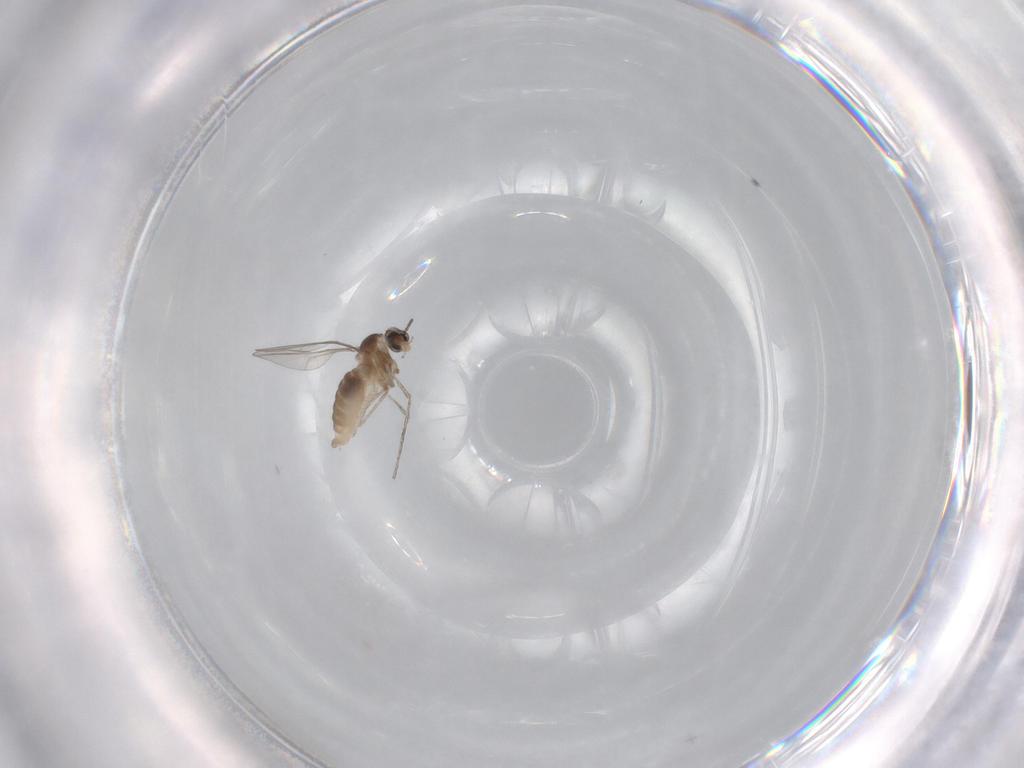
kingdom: Animalia
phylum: Arthropoda
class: Insecta
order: Diptera
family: Cecidomyiidae
